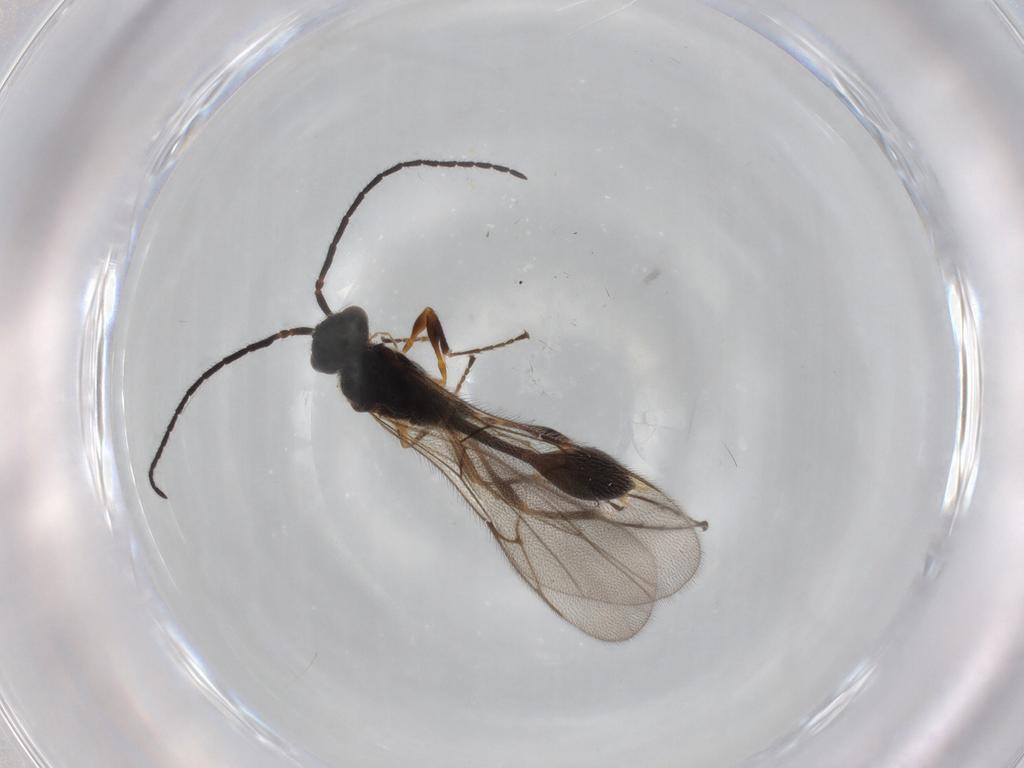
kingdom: Animalia
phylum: Arthropoda
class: Insecta
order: Hymenoptera
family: Diapriidae
